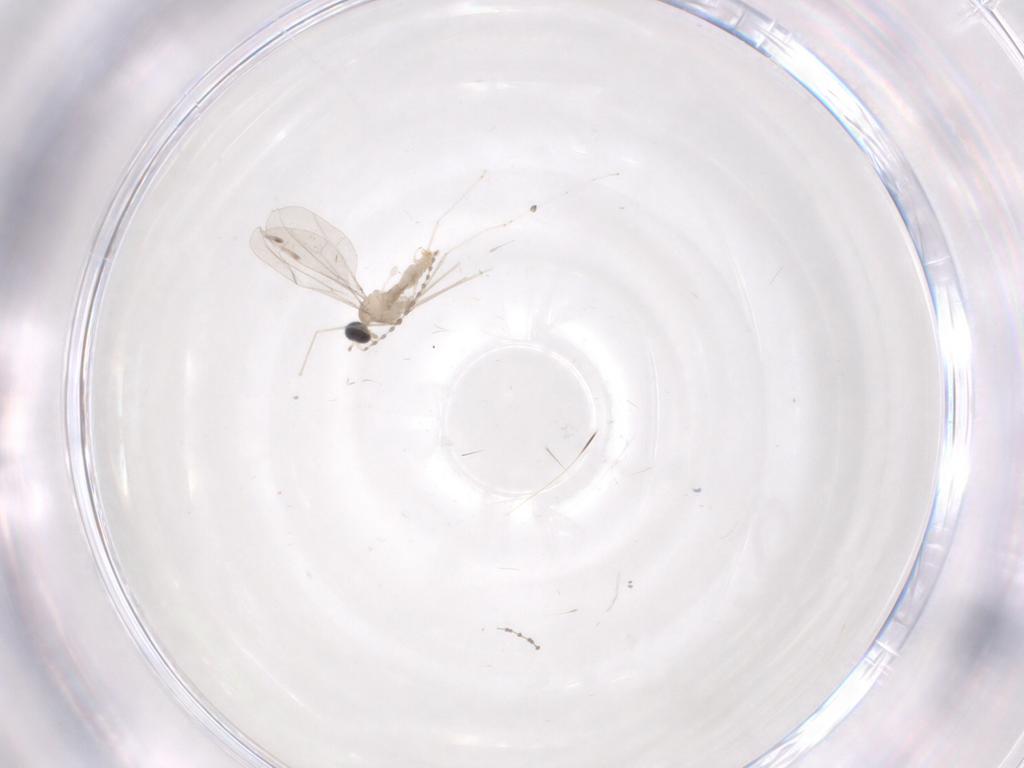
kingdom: Animalia
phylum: Arthropoda
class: Insecta
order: Diptera
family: Cecidomyiidae
